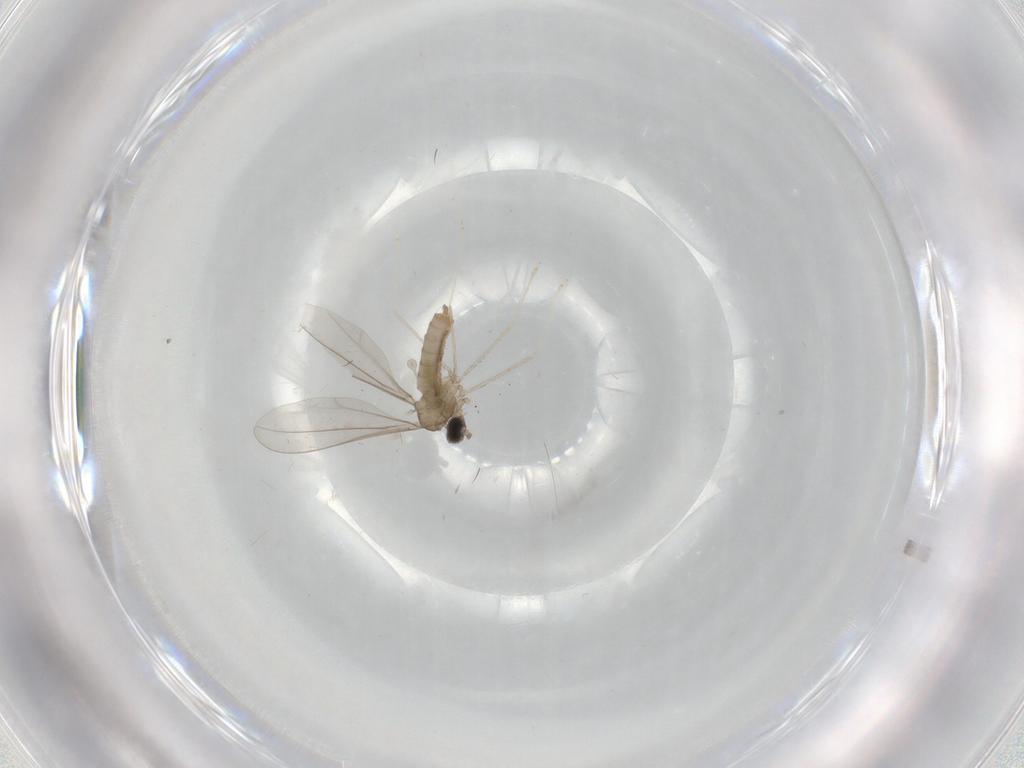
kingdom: Animalia
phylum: Arthropoda
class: Insecta
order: Diptera
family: Cecidomyiidae
